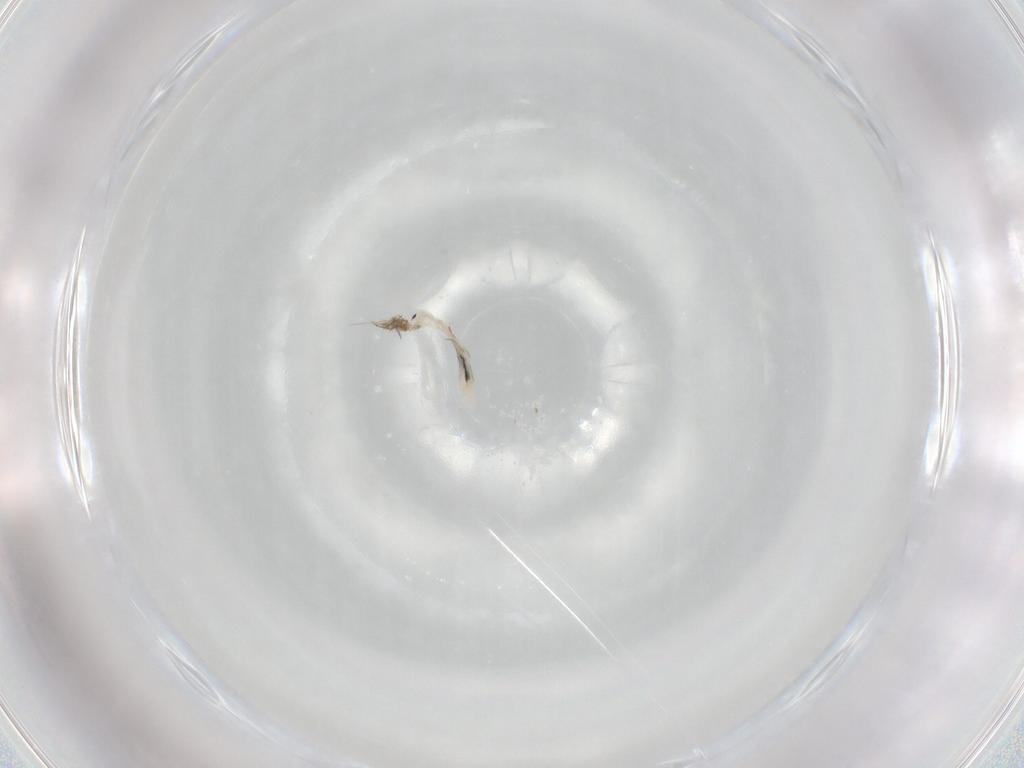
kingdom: Animalia
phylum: Arthropoda
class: Collembola
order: Entomobryomorpha
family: Entomobryidae
